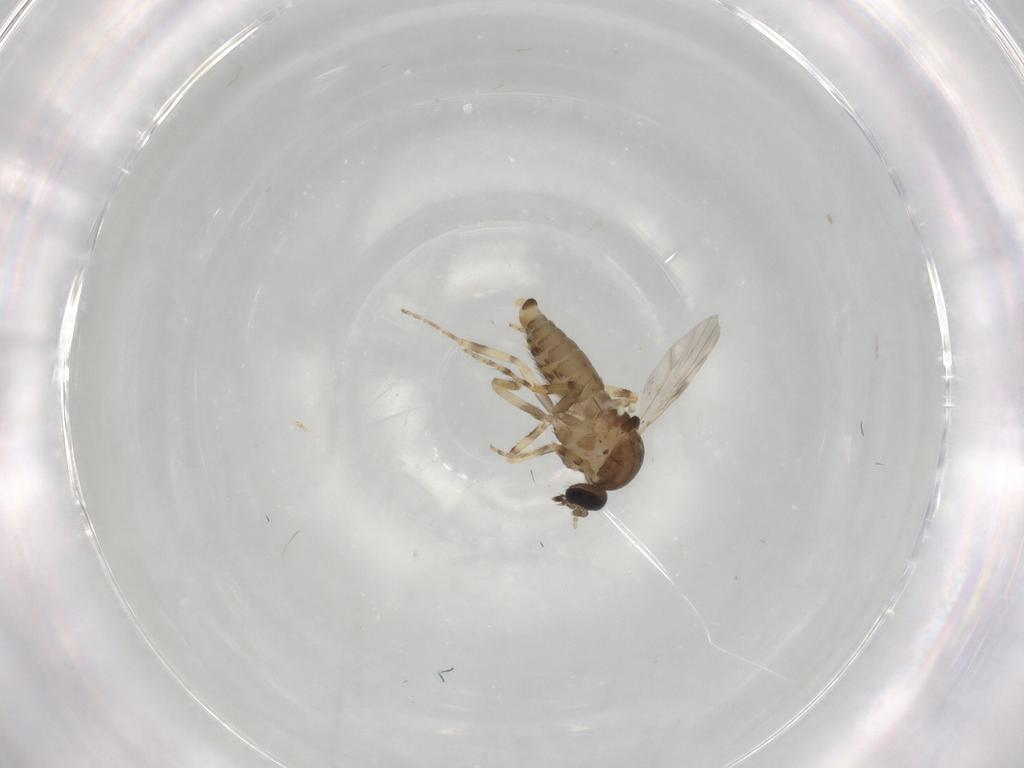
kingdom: Animalia
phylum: Arthropoda
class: Insecta
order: Diptera
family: Ceratopogonidae
